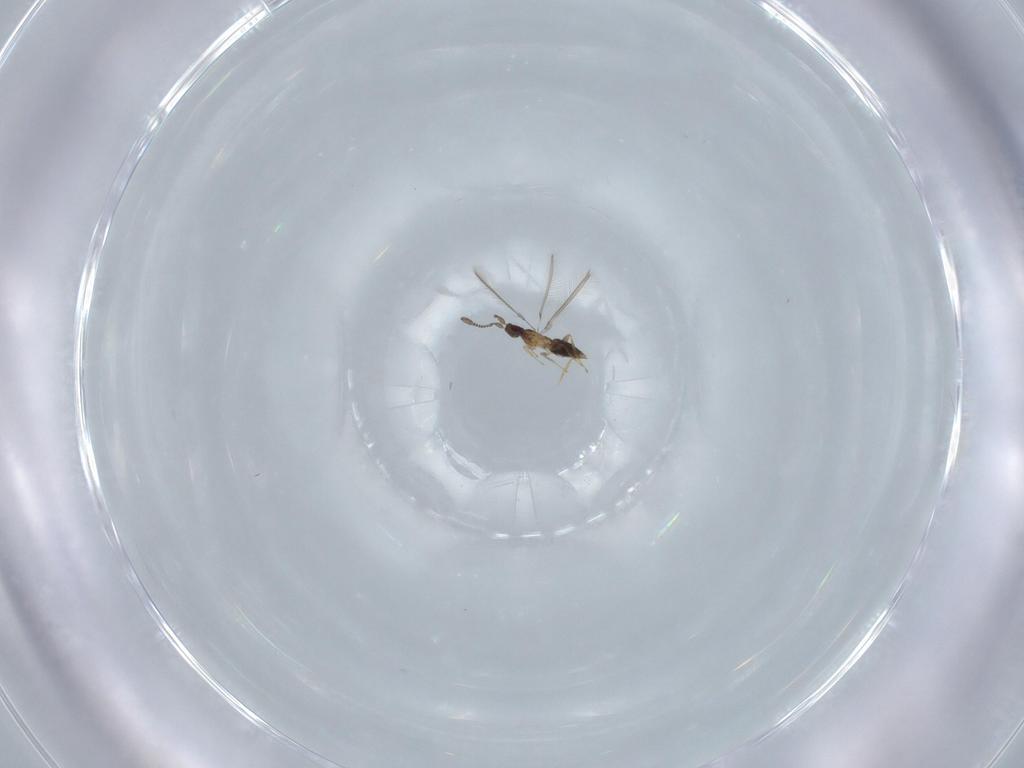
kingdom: Animalia
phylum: Arthropoda
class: Insecta
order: Hymenoptera
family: Mymaridae
